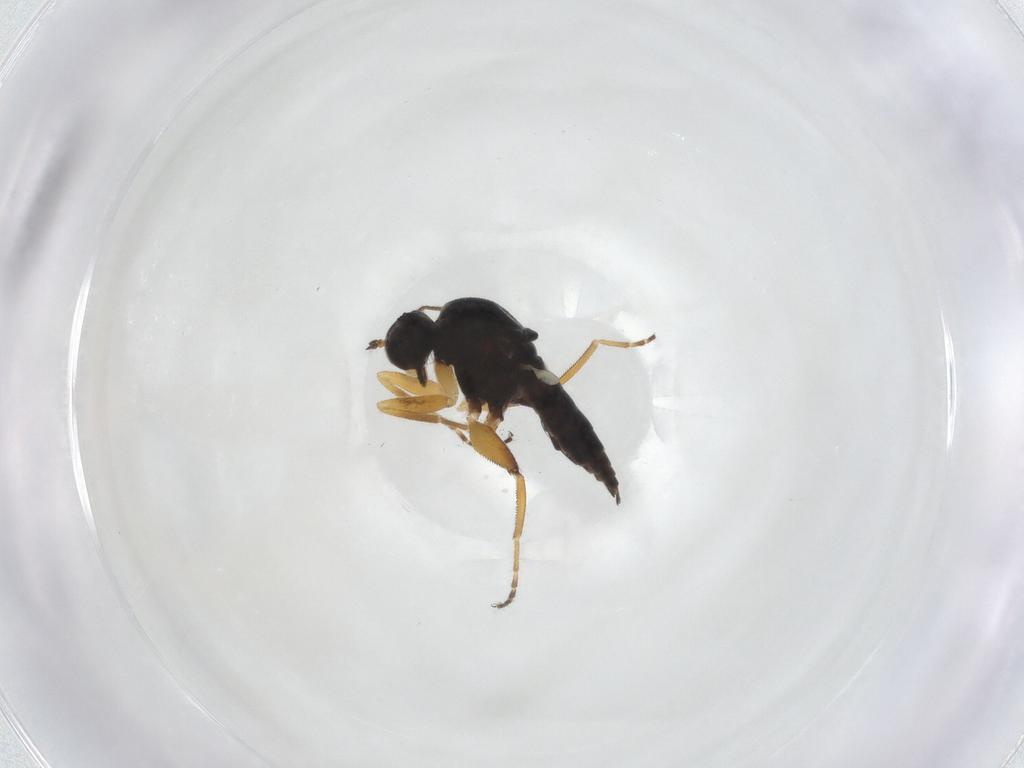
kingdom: Animalia
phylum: Arthropoda
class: Insecta
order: Diptera
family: Hybotidae
